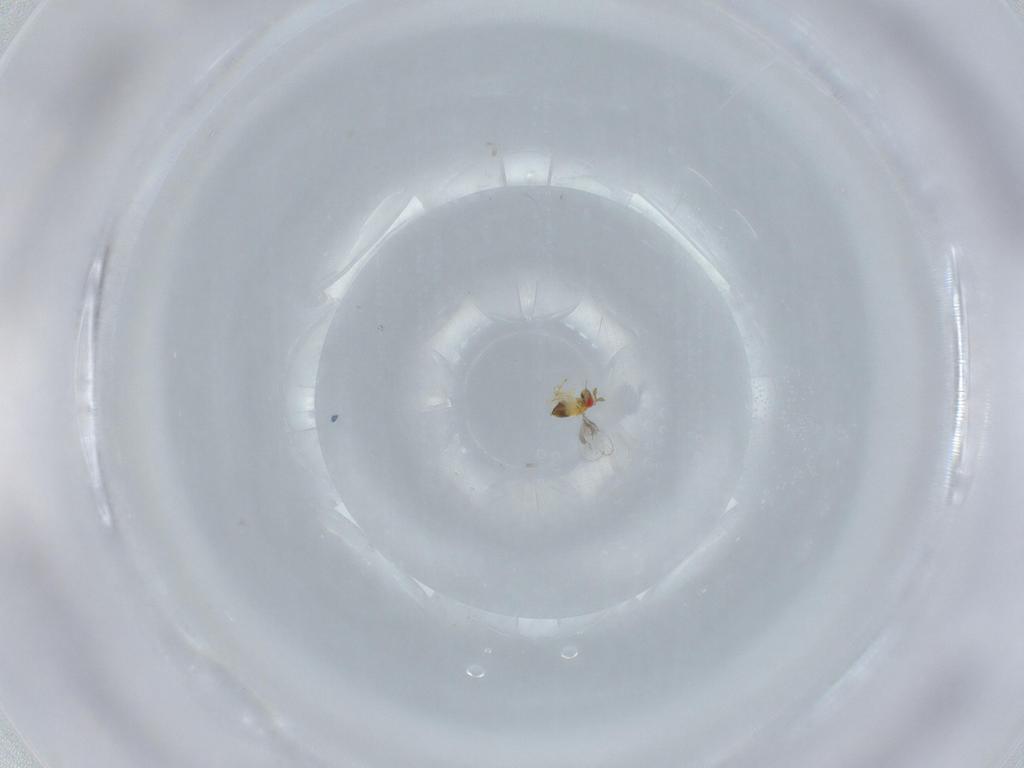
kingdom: Animalia
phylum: Arthropoda
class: Insecta
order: Hymenoptera
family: Trichogrammatidae
